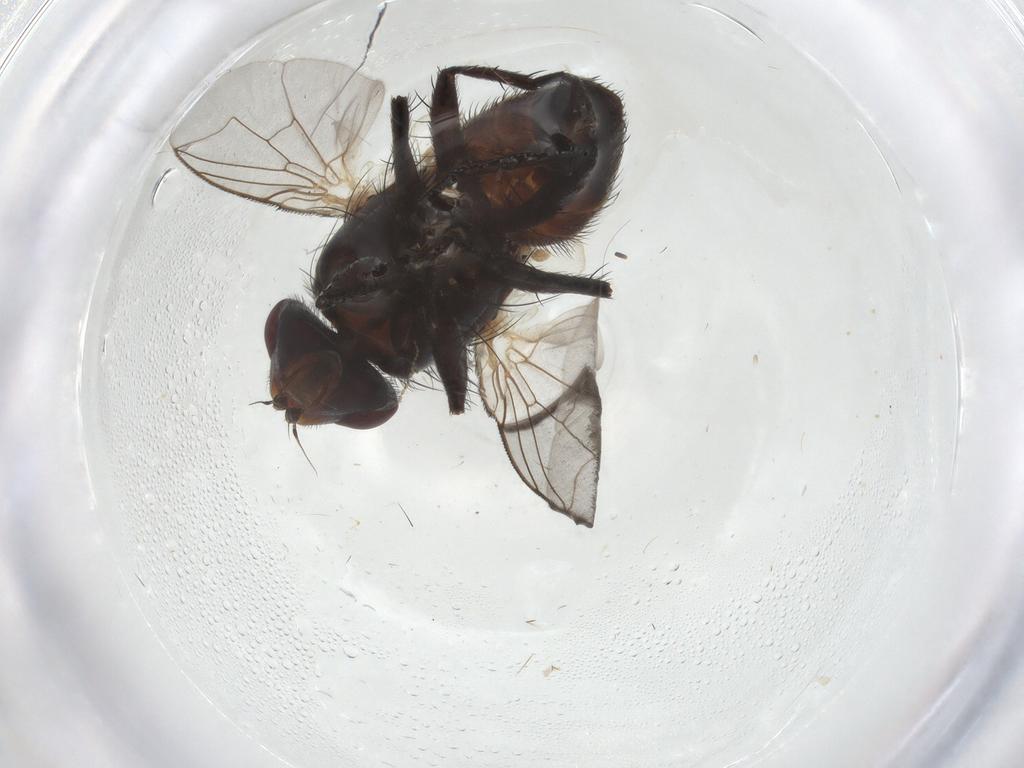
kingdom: Animalia
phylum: Arthropoda
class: Insecta
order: Diptera
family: Sarcophagidae
